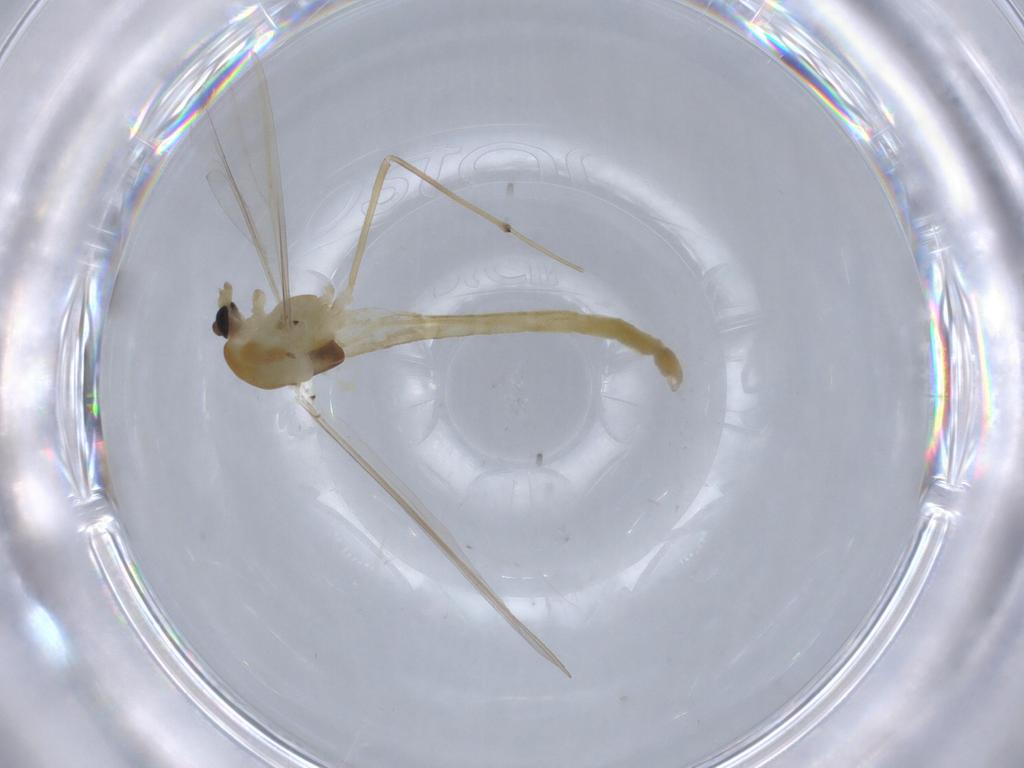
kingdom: Animalia
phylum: Arthropoda
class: Insecta
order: Diptera
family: Chironomidae
